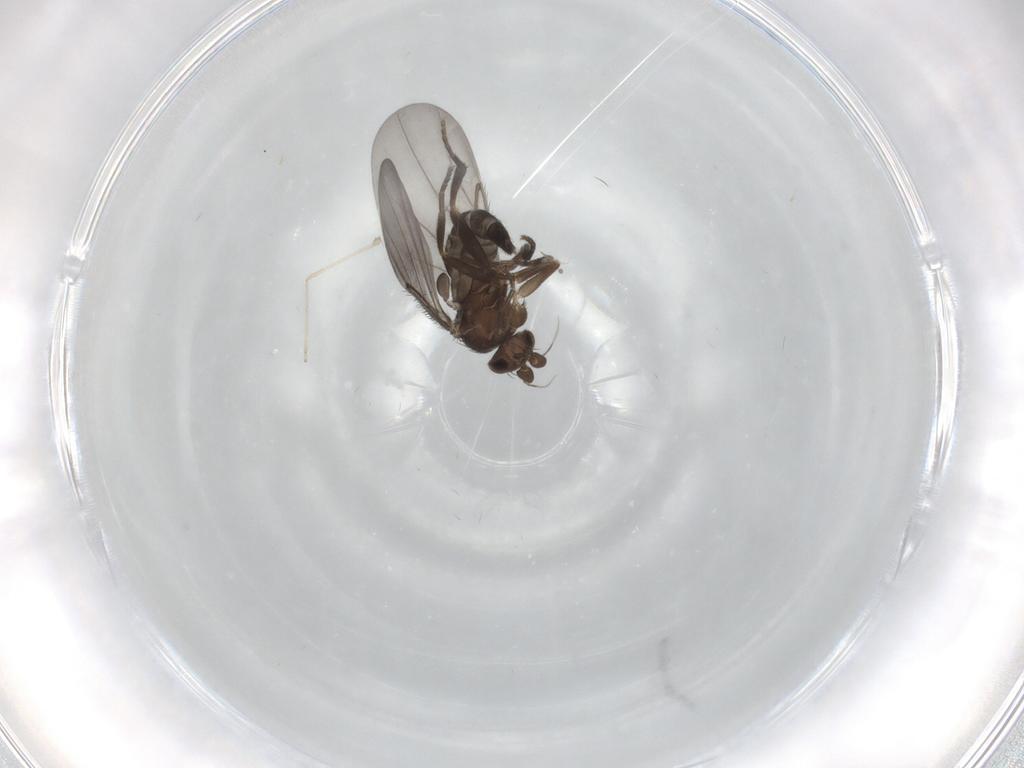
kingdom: Animalia
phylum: Arthropoda
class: Insecta
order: Diptera
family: Phoridae
